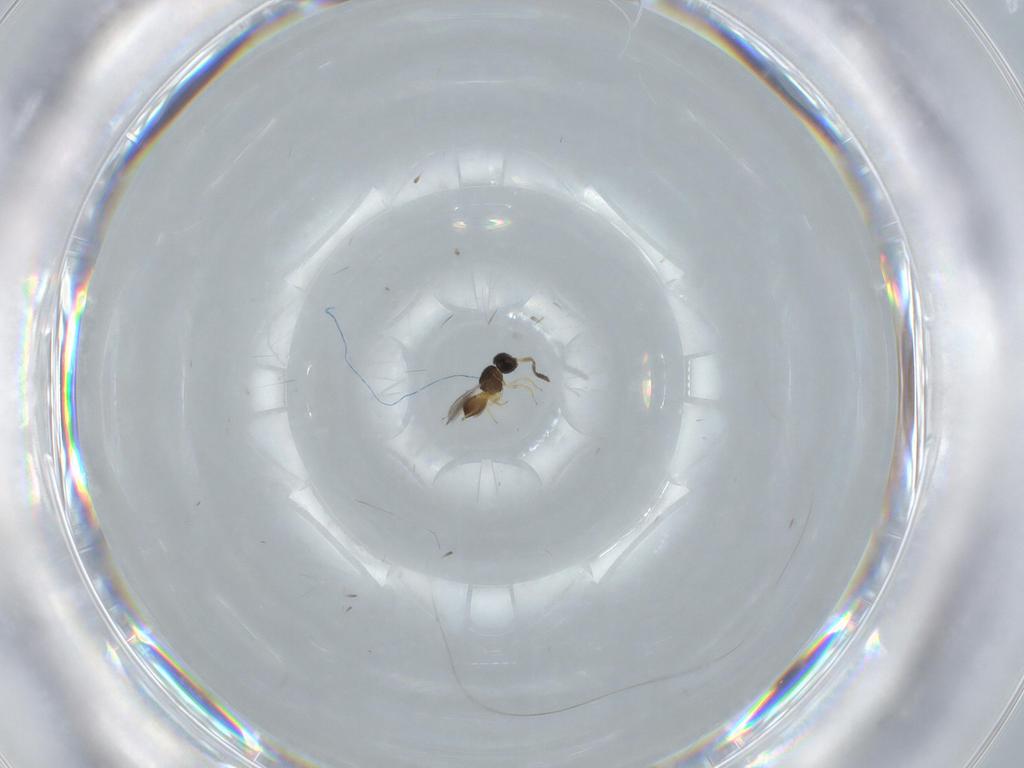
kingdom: Animalia
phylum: Arthropoda
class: Insecta
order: Hymenoptera
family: Scelionidae
